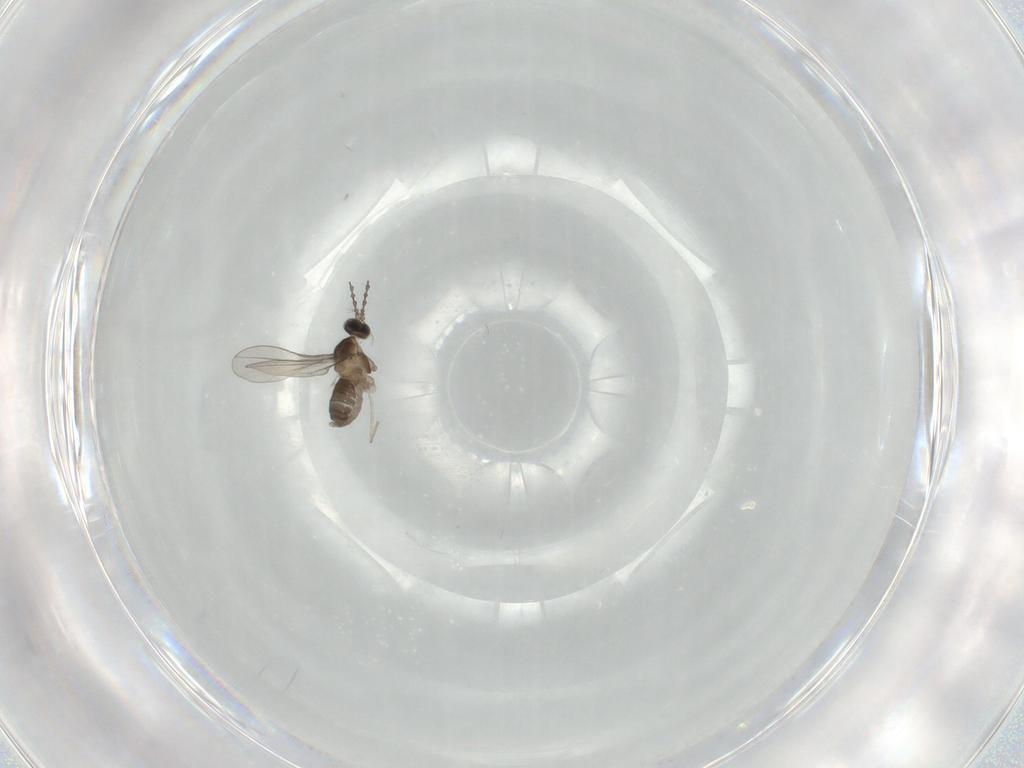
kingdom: Animalia
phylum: Arthropoda
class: Insecta
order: Diptera
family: Cecidomyiidae
